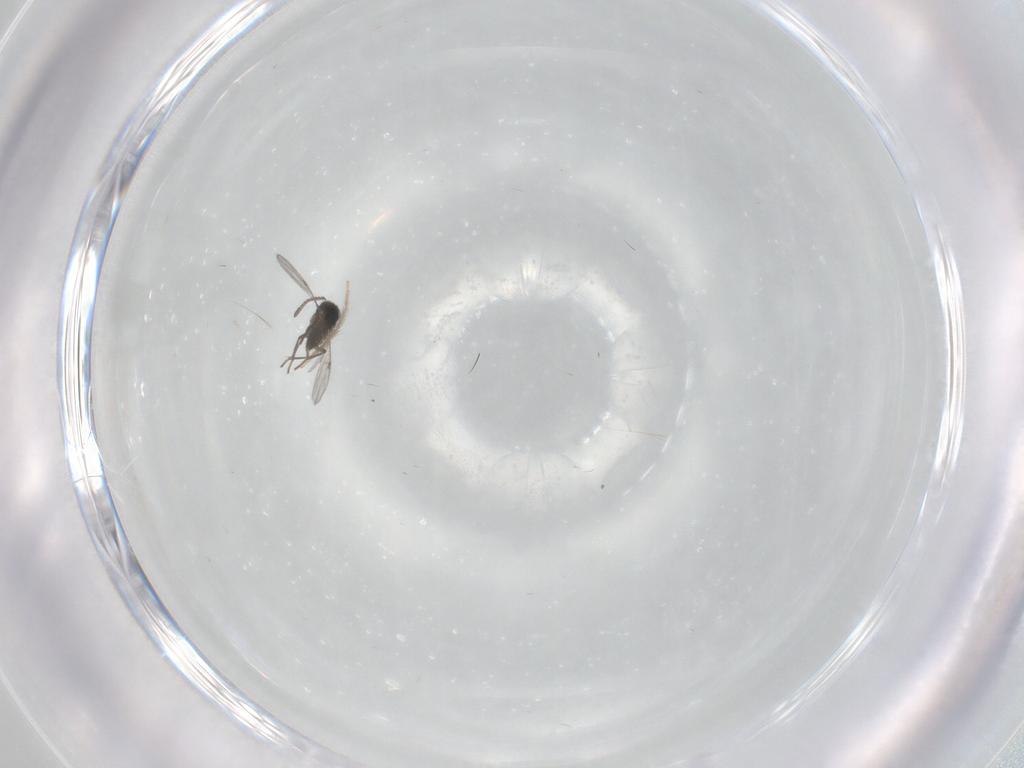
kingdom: Animalia
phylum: Arthropoda
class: Insecta
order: Diptera
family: Chironomidae
